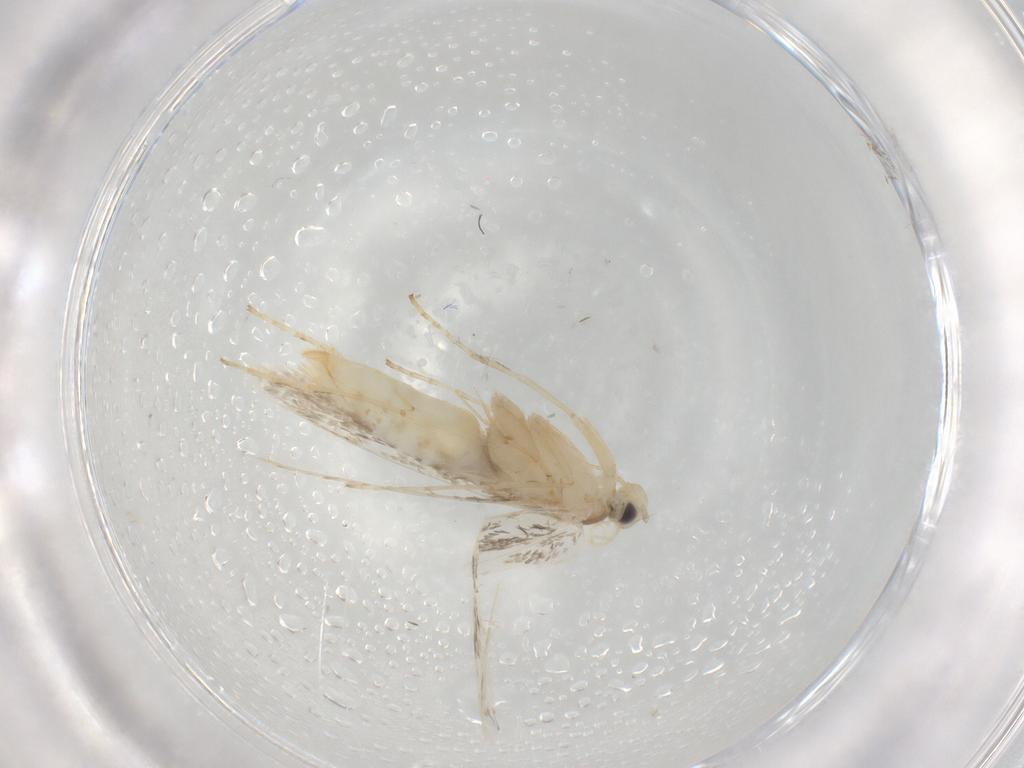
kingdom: Animalia
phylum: Arthropoda
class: Insecta
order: Lepidoptera
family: Gracillariidae
